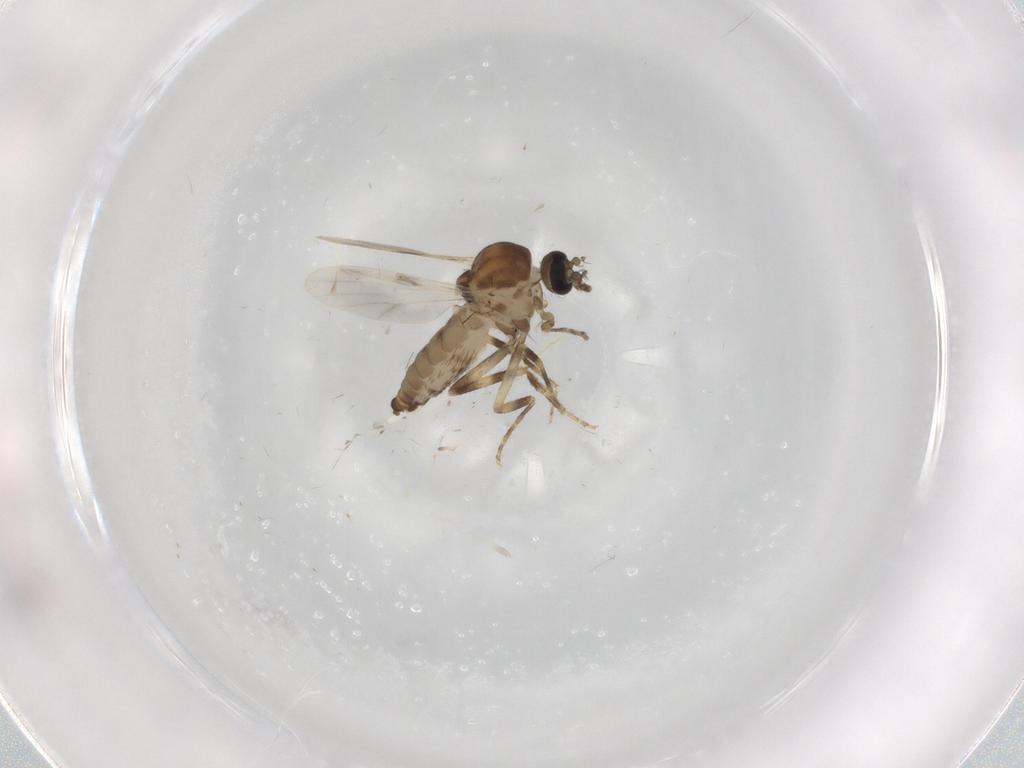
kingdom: Animalia
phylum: Arthropoda
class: Insecta
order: Diptera
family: Ceratopogonidae
